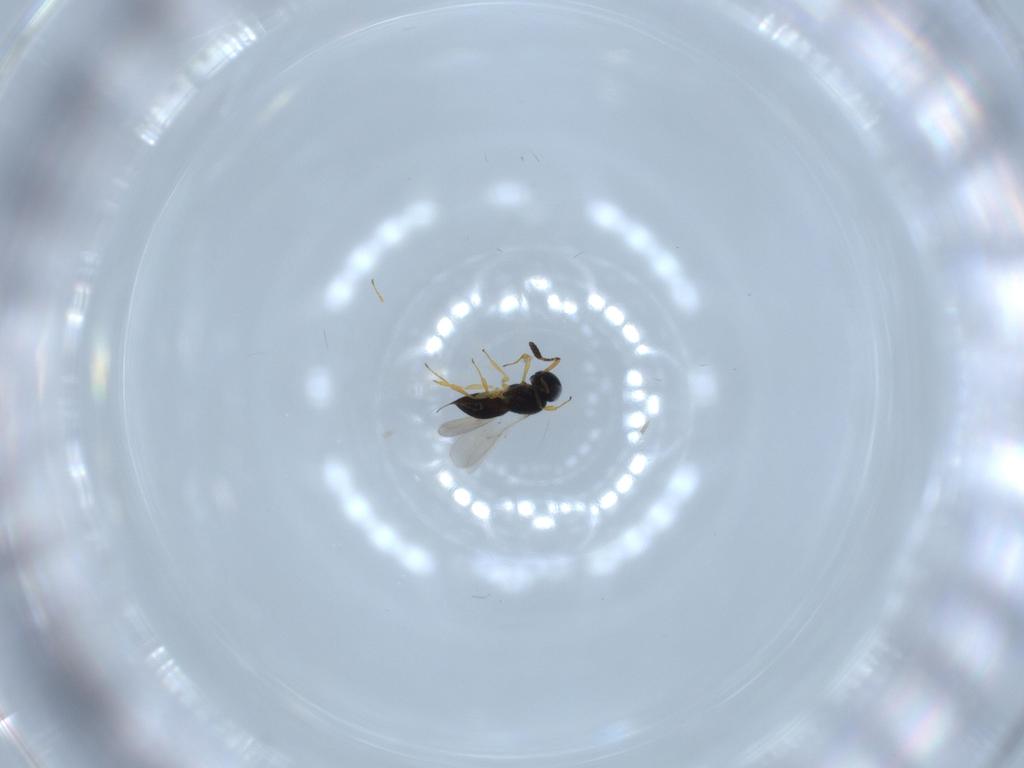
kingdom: Animalia
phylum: Arthropoda
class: Insecta
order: Hymenoptera
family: Scelionidae
